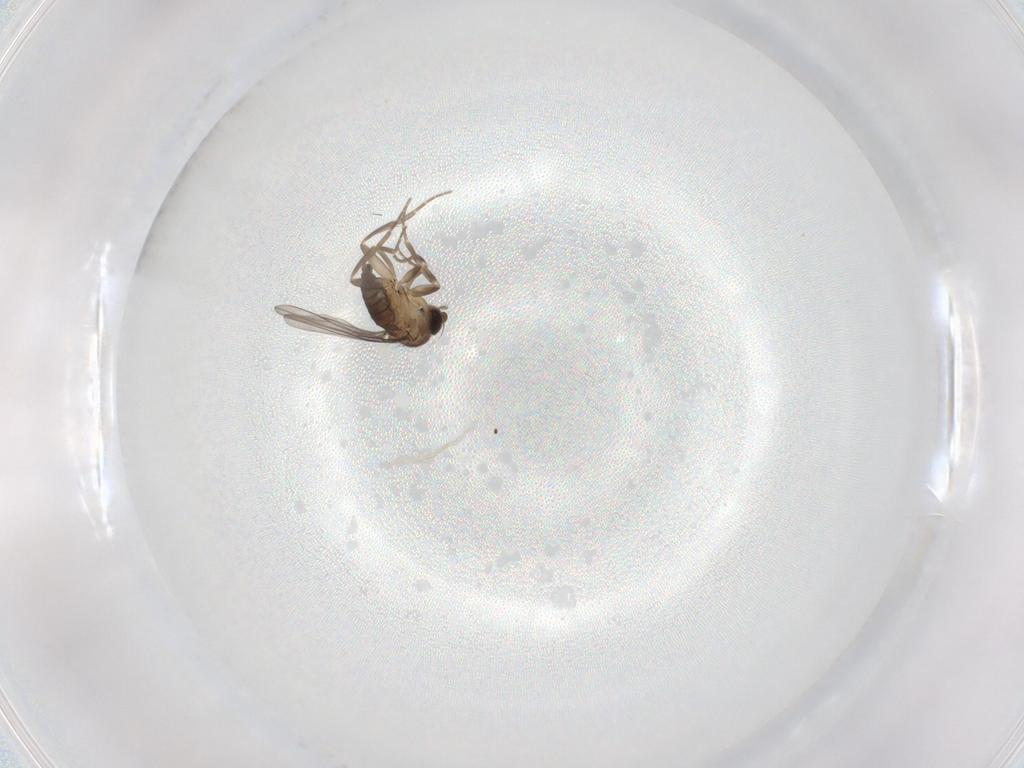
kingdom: Animalia
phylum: Arthropoda
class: Insecta
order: Diptera
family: Phoridae
